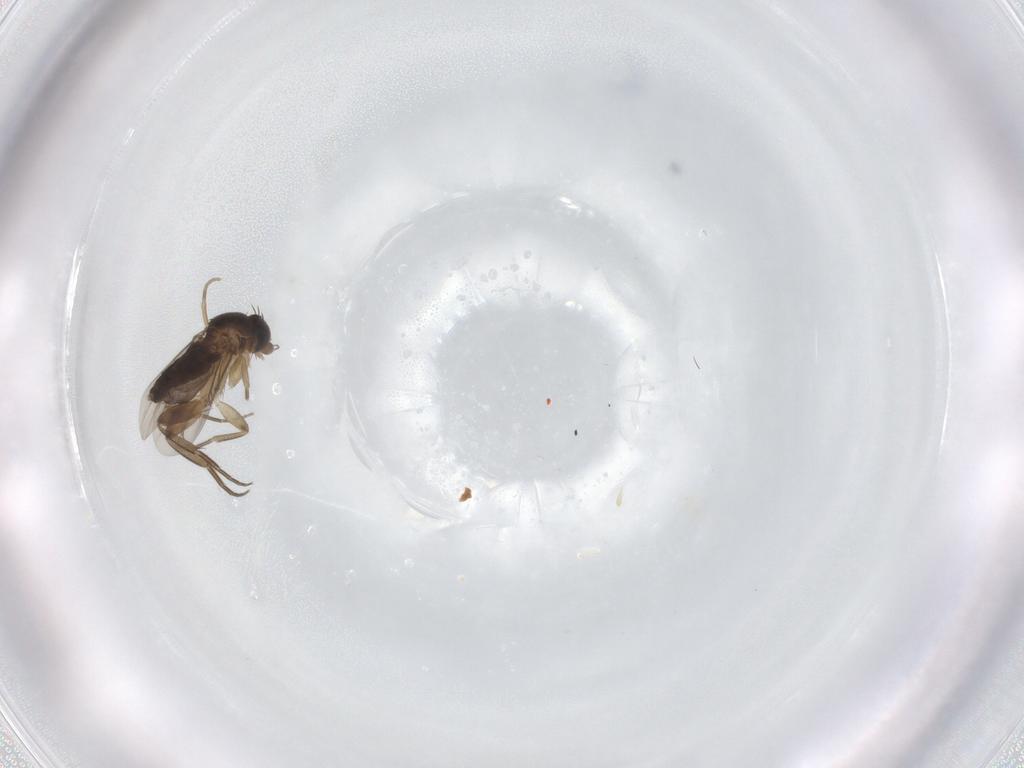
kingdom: Animalia
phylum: Arthropoda
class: Insecta
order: Diptera
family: Phoridae
